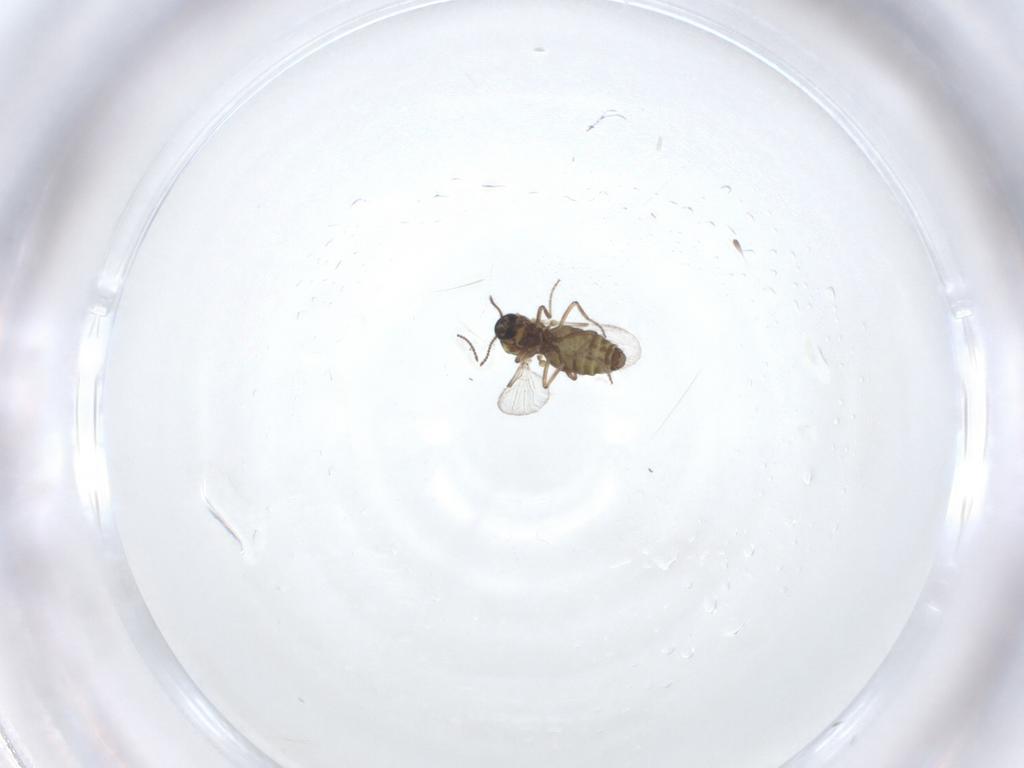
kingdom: Animalia
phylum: Arthropoda
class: Insecta
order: Diptera
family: Ceratopogonidae
